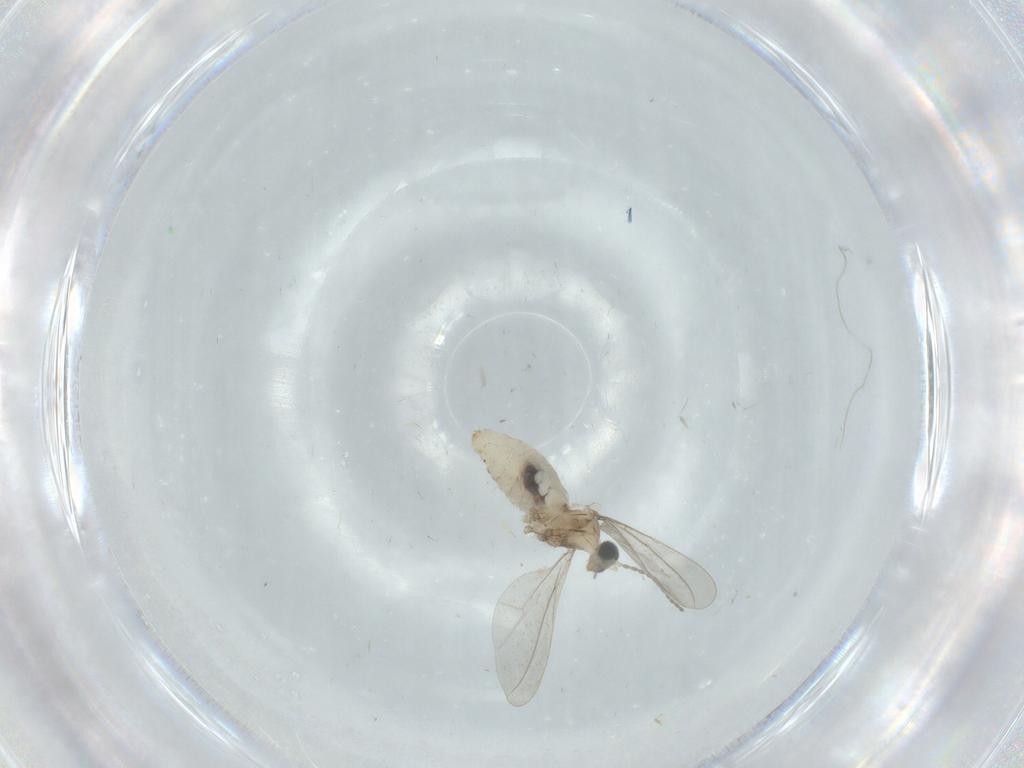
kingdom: Animalia
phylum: Arthropoda
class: Insecta
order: Diptera
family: Cecidomyiidae
